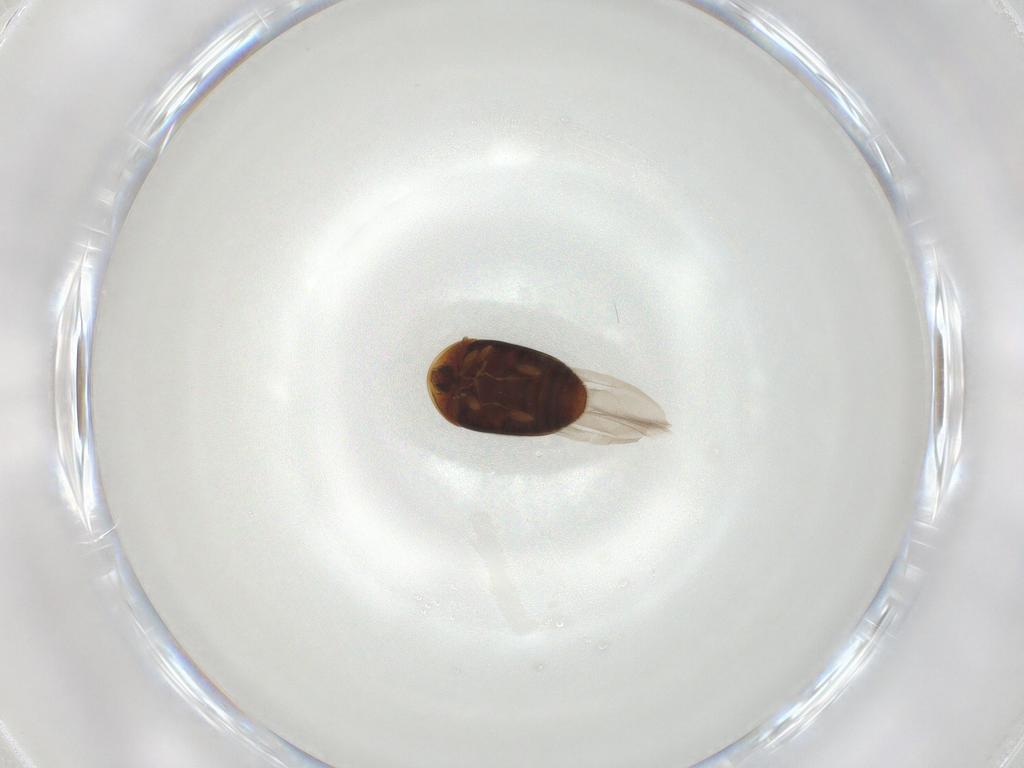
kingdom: Animalia
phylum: Arthropoda
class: Insecta
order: Coleoptera
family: Corylophidae
